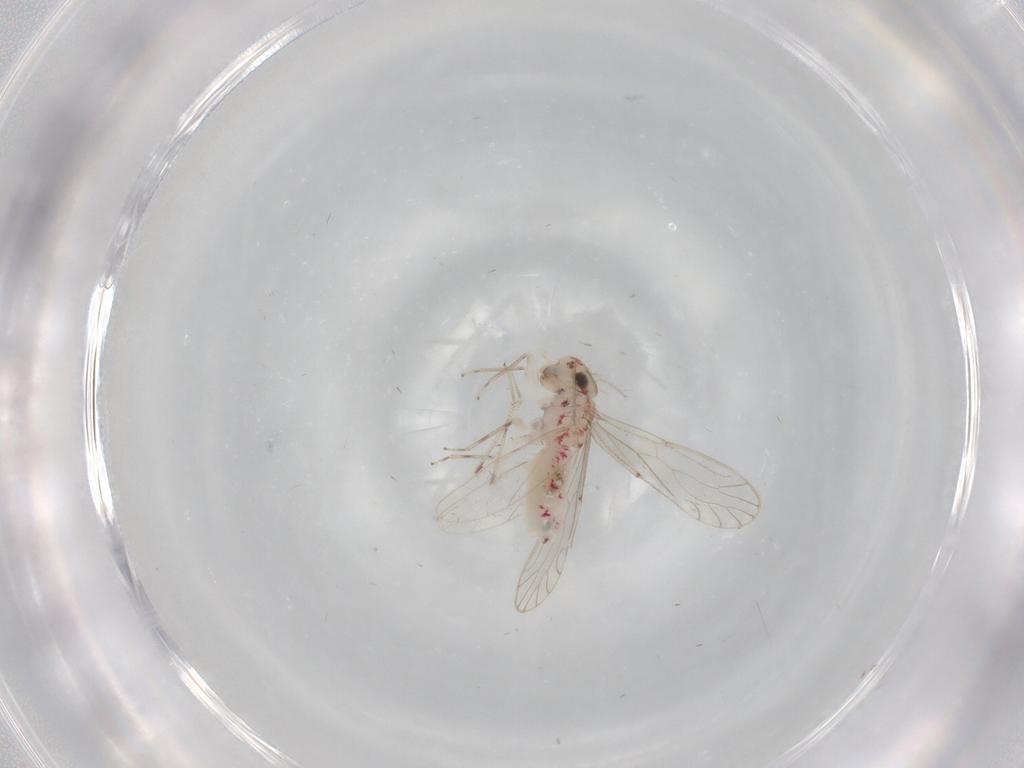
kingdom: Animalia
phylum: Arthropoda
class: Insecta
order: Psocodea
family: Caeciliusidae
